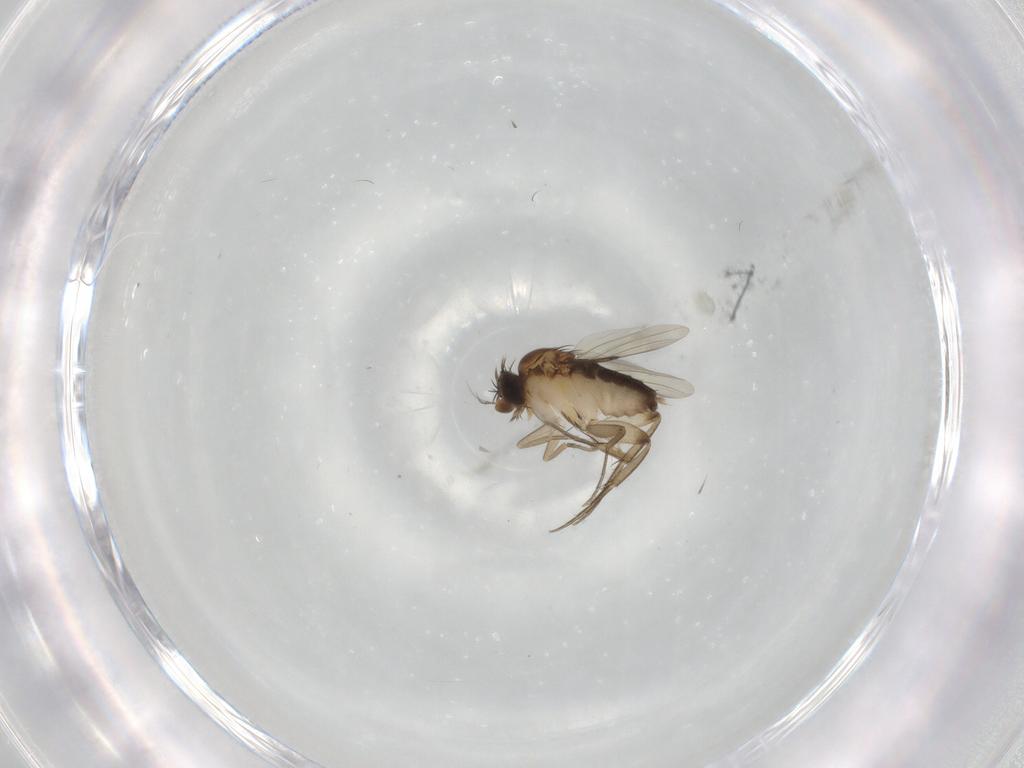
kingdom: Animalia
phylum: Arthropoda
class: Insecta
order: Diptera
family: Phoridae
